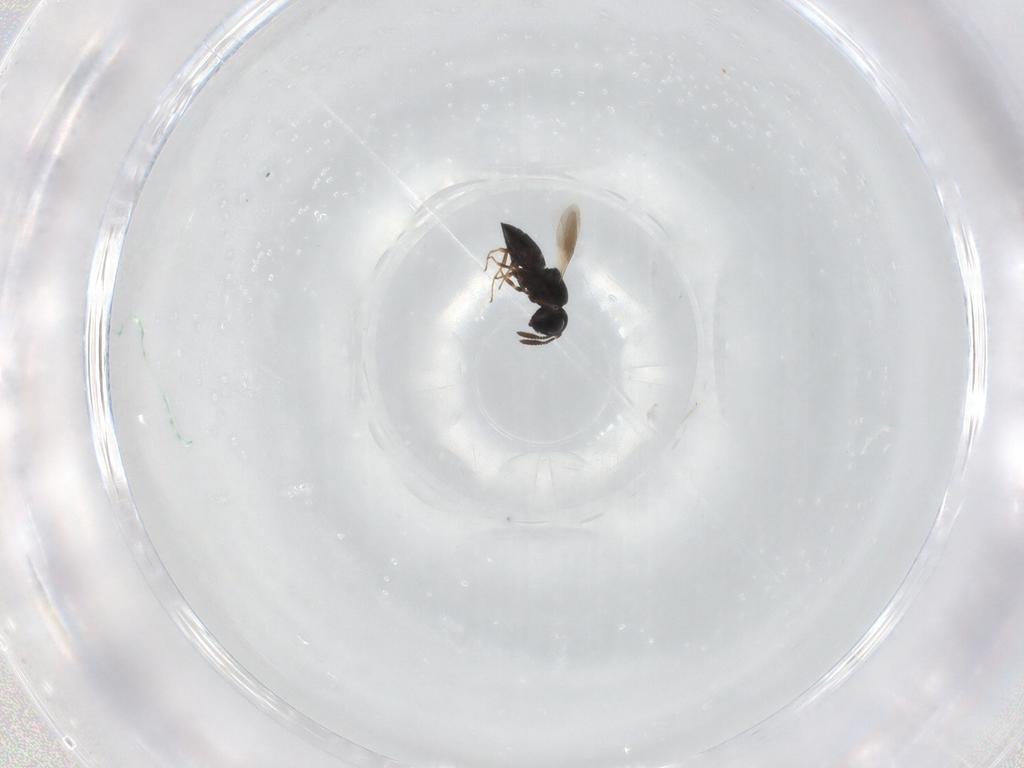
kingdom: Animalia
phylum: Arthropoda
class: Insecta
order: Hymenoptera
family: Scelionidae
